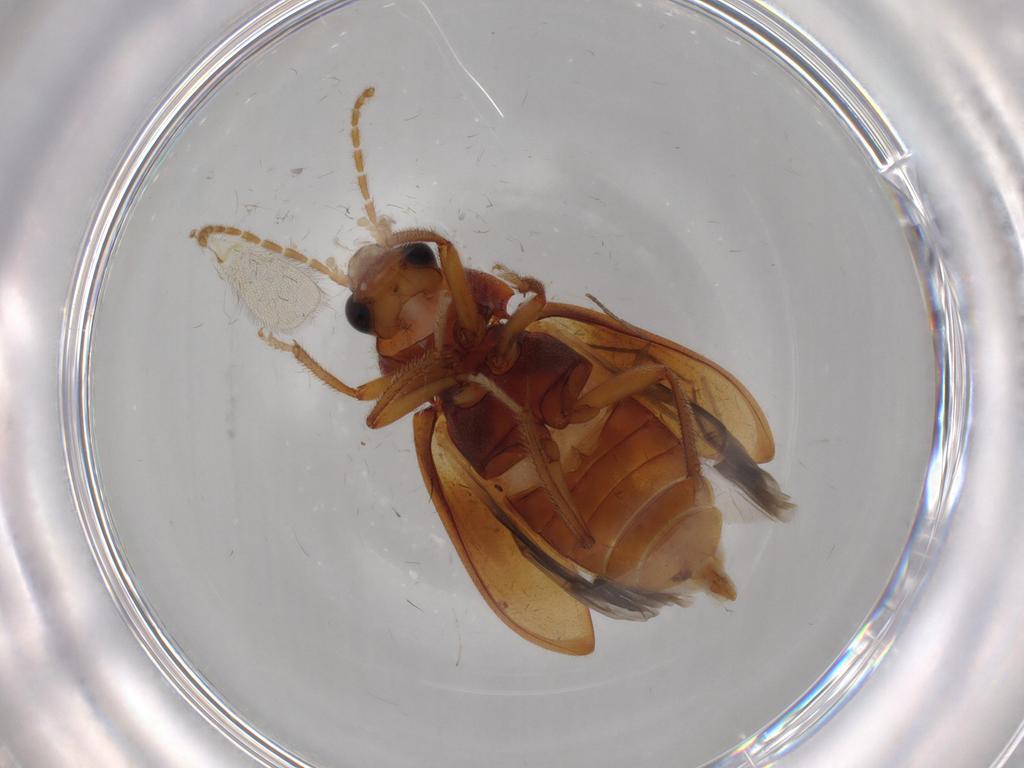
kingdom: Animalia
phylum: Arthropoda
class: Insecta
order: Coleoptera
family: Ptilodactylidae
